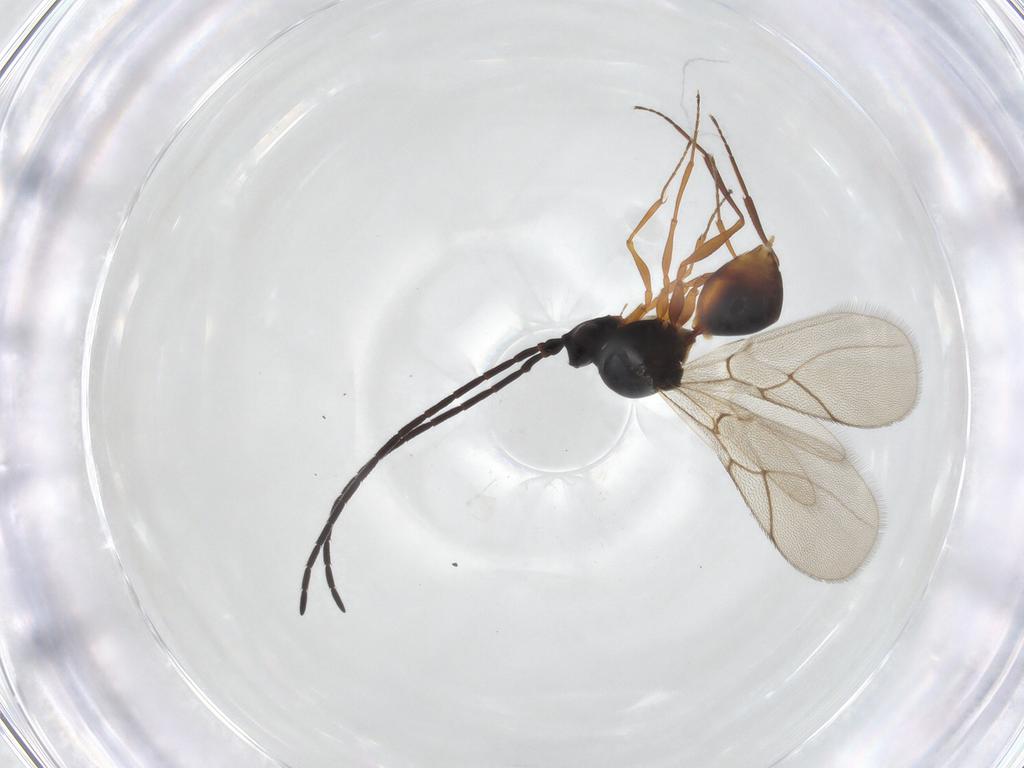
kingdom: Animalia
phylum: Arthropoda
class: Insecta
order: Hymenoptera
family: Figitidae
